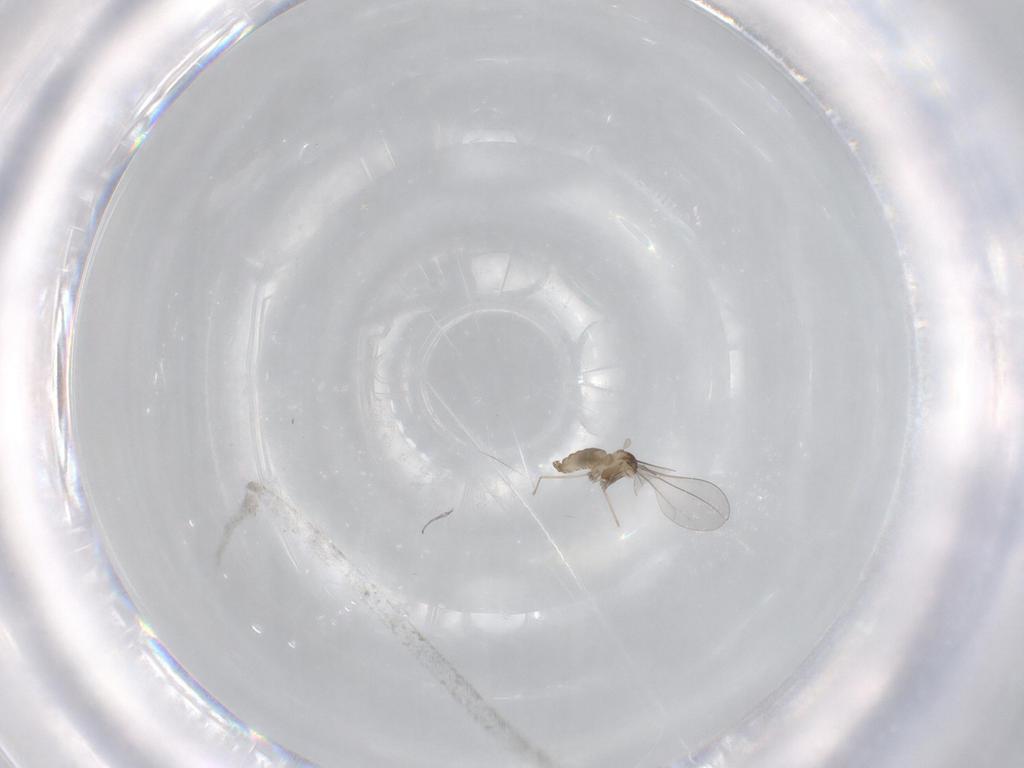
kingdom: Animalia
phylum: Arthropoda
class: Insecta
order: Diptera
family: Cecidomyiidae
